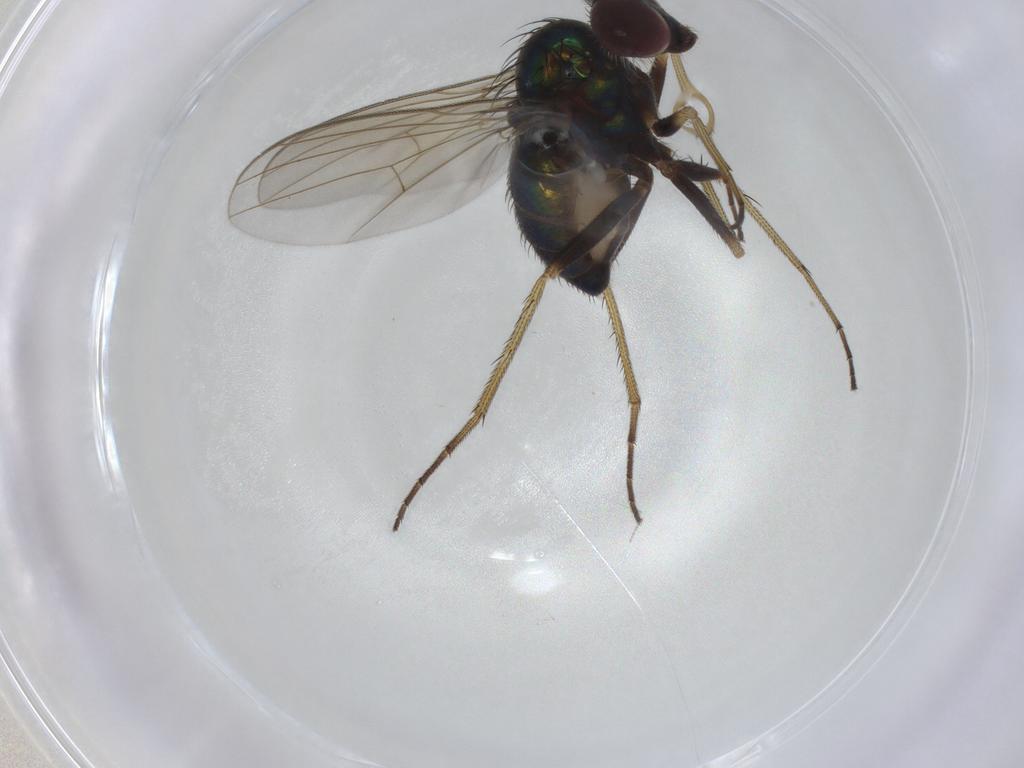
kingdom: Animalia
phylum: Arthropoda
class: Insecta
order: Diptera
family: Dolichopodidae
